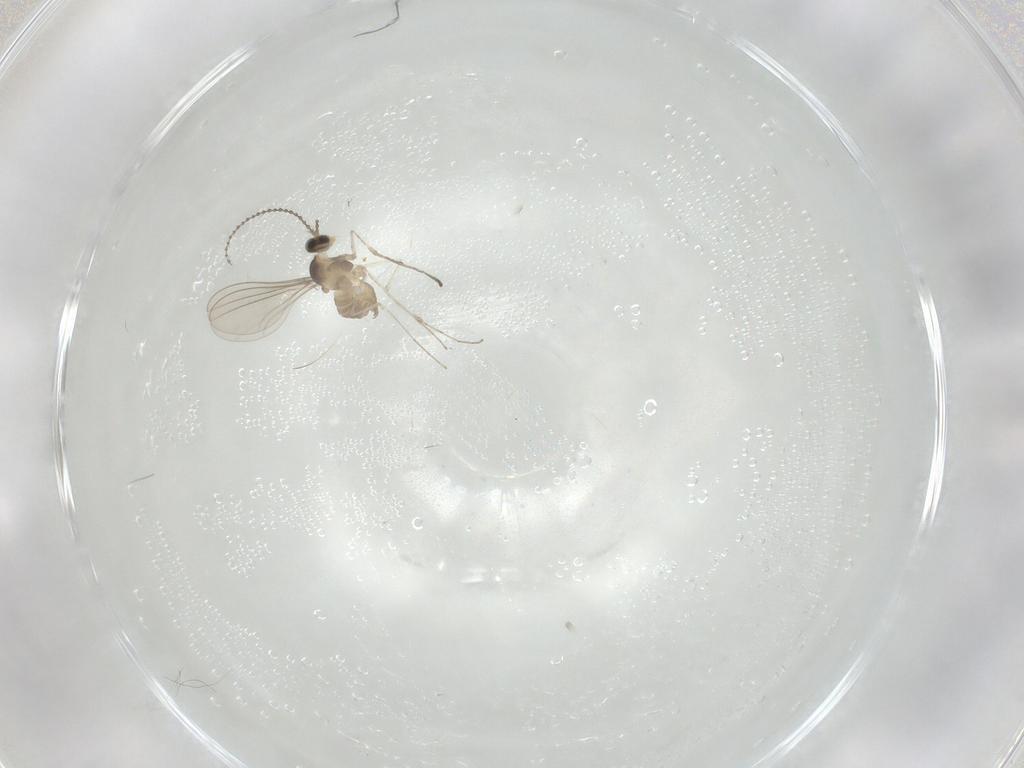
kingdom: Animalia
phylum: Arthropoda
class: Insecta
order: Diptera
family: Cecidomyiidae
